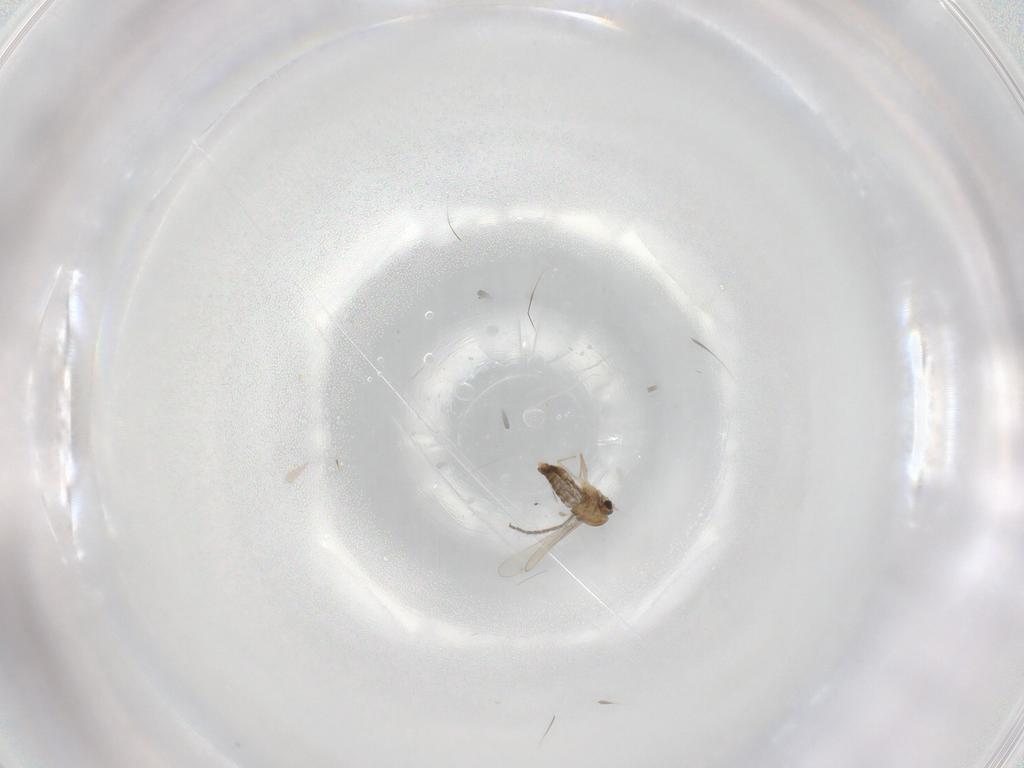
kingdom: Animalia
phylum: Arthropoda
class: Insecta
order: Diptera
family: Chironomidae
